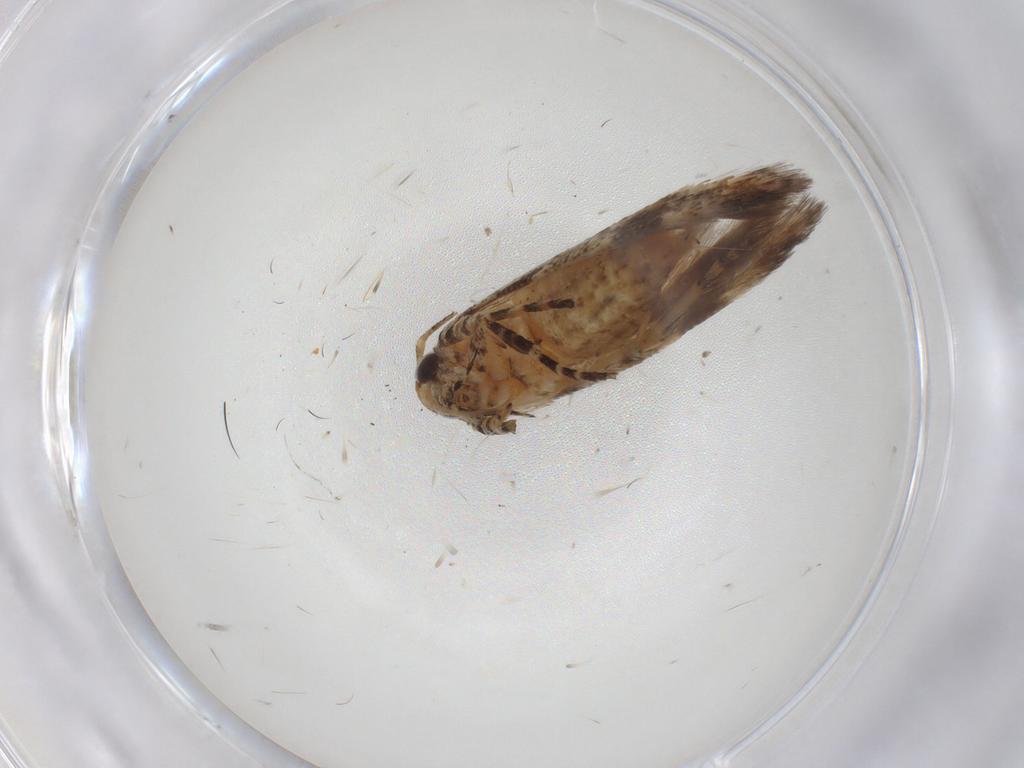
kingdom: Animalia
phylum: Arthropoda
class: Insecta
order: Lepidoptera
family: Gelechiidae
